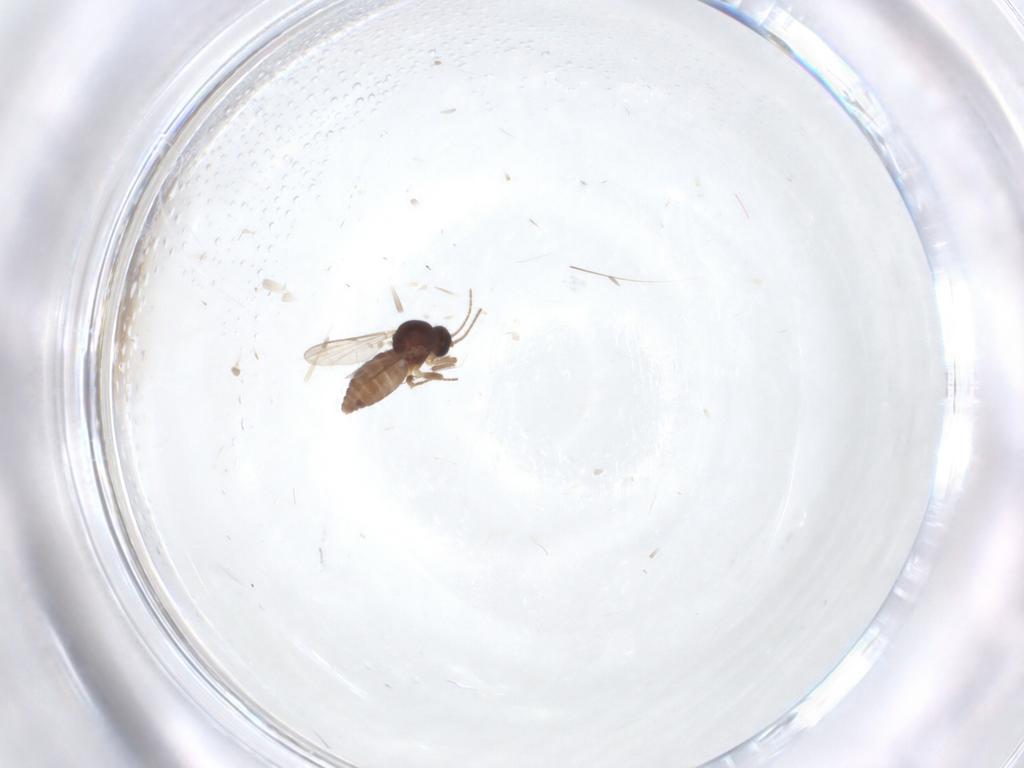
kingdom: Animalia
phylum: Arthropoda
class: Insecta
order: Diptera
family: Ceratopogonidae
